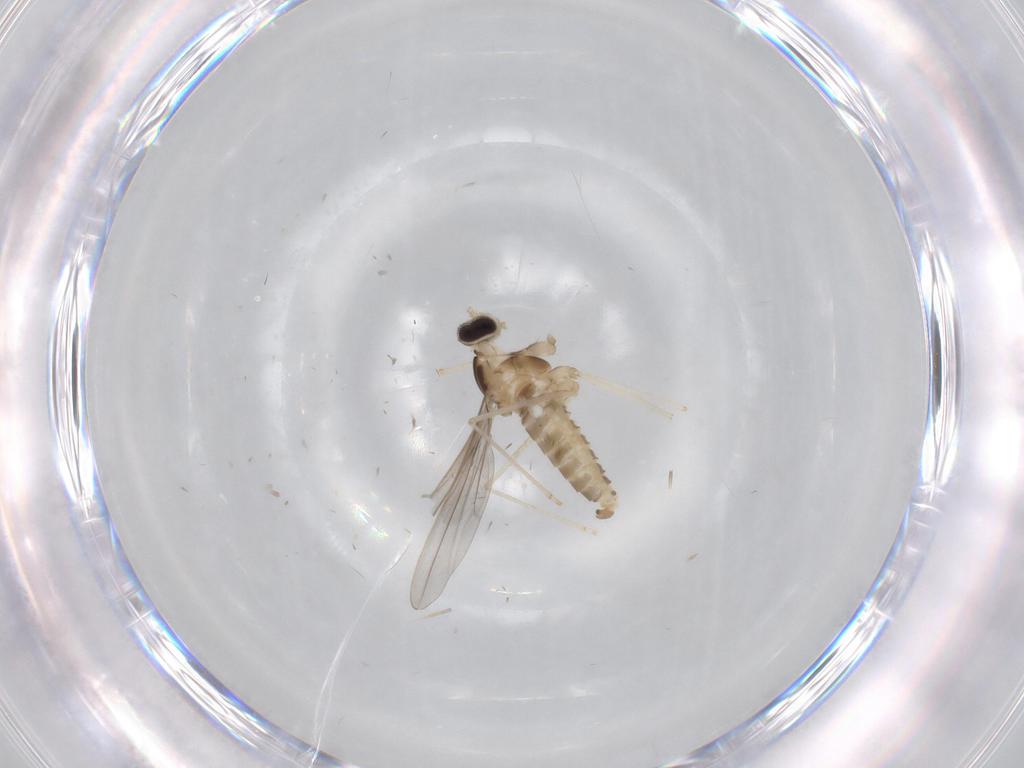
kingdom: Animalia
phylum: Arthropoda
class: Insecta
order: Diptera
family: Cecidomyiidae
